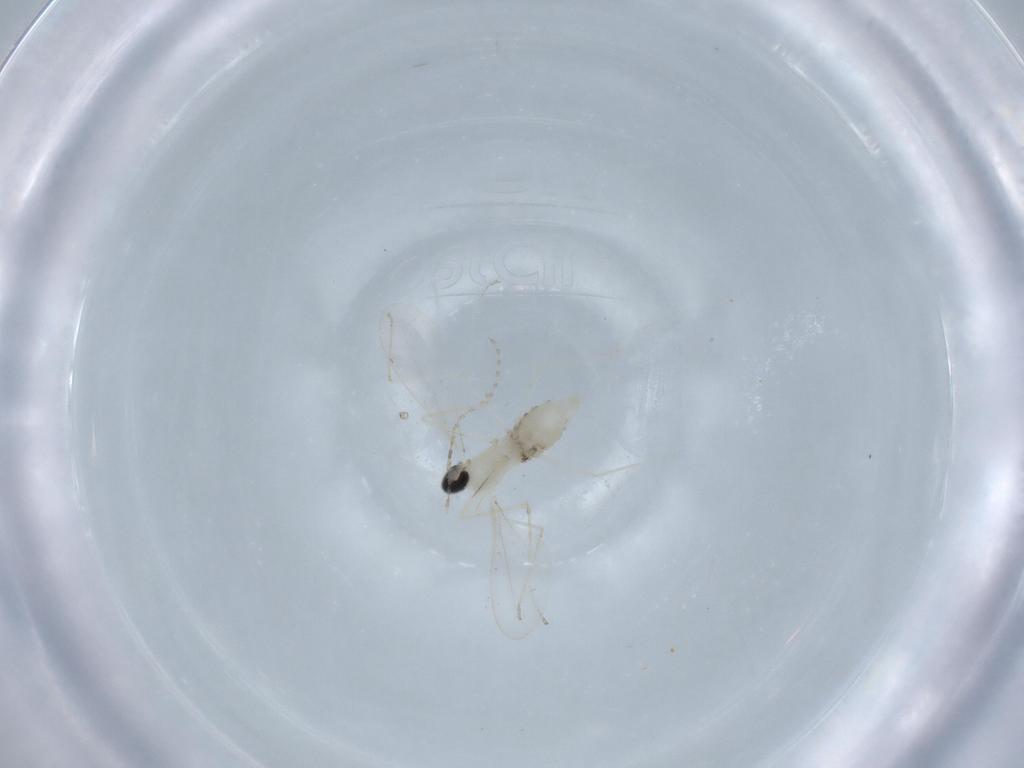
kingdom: Animalia
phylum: Arthropoda
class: Insecta
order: Diptera
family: Cecidomyiidae
